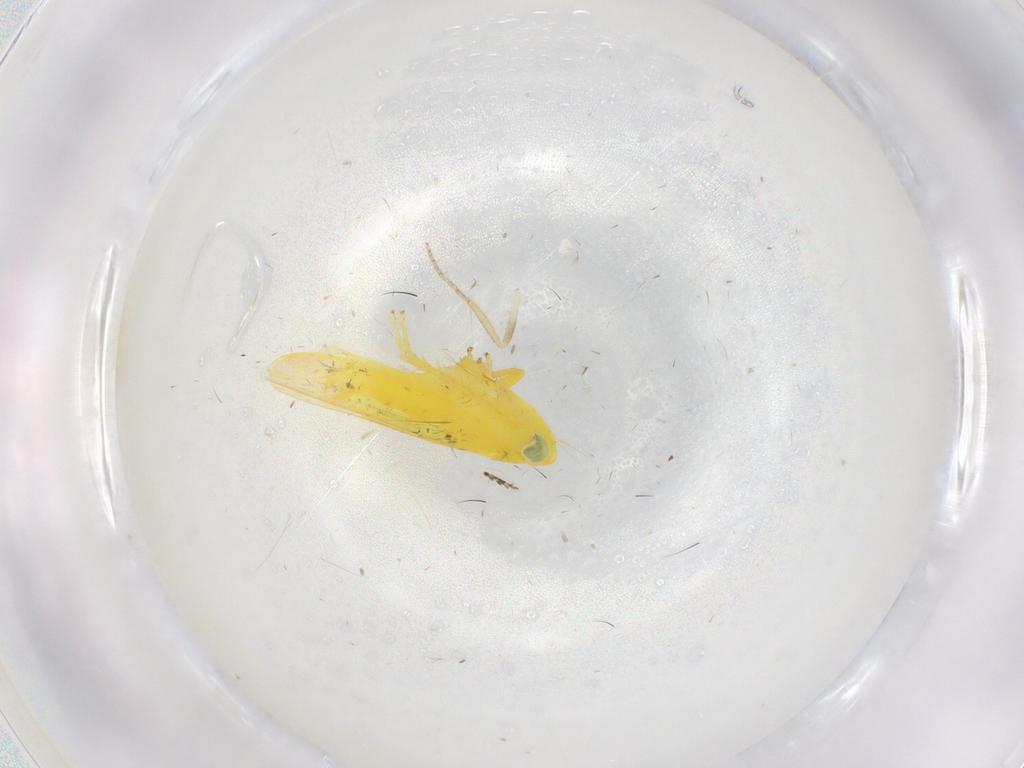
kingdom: Animalia
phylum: Arthropoda
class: Insecta
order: Hemiptera
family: Cicadellidae
